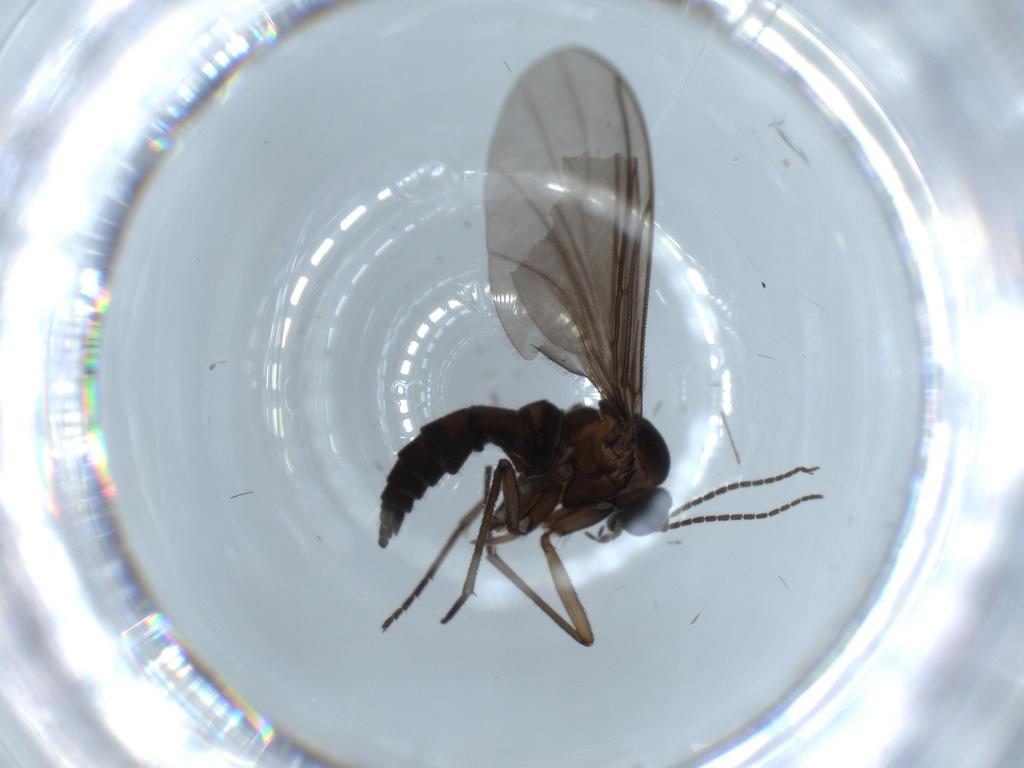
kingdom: Animalia
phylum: Arthropoda
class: Insecta
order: Diptera
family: Sciaridae
